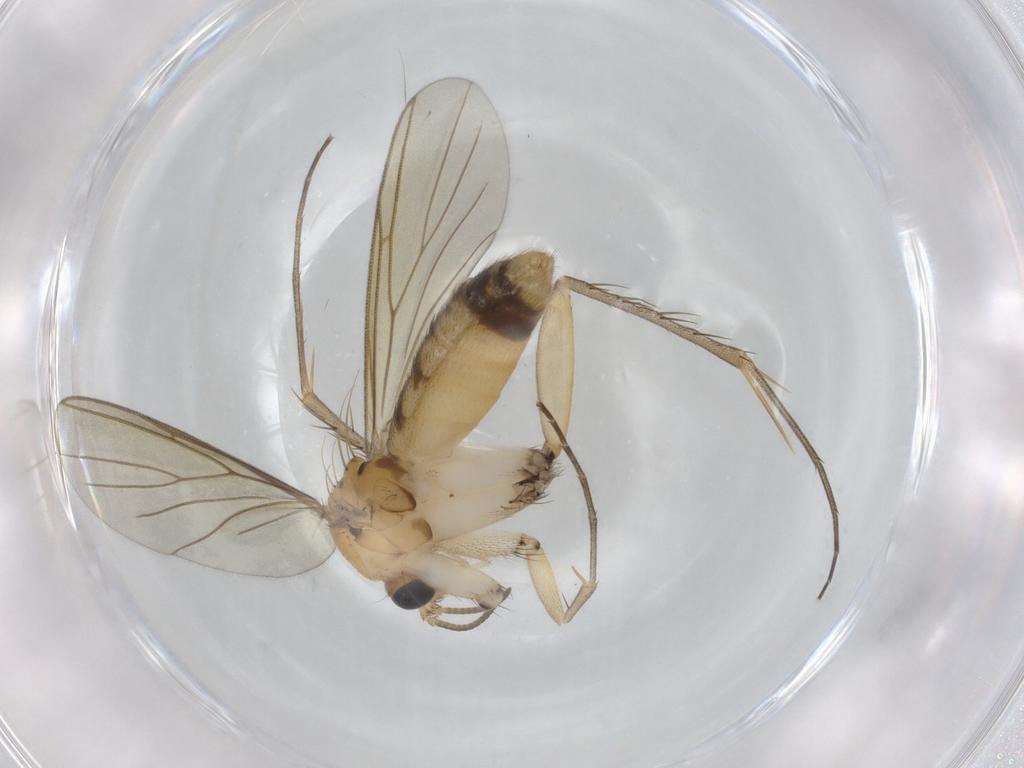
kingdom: Animalia
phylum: Arthropoda
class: Insecta
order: Diptera
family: Mycetophilidae
